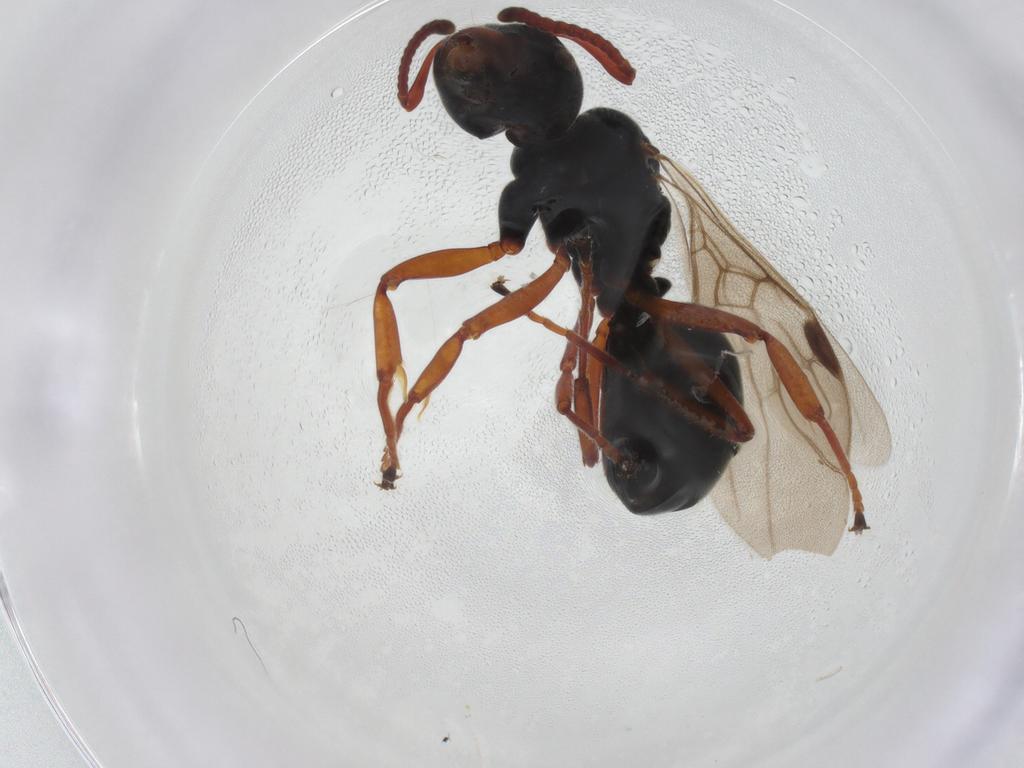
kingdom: Animalia
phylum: Arthropoda
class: Insecta
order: Hymenoptera
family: Formicidae
